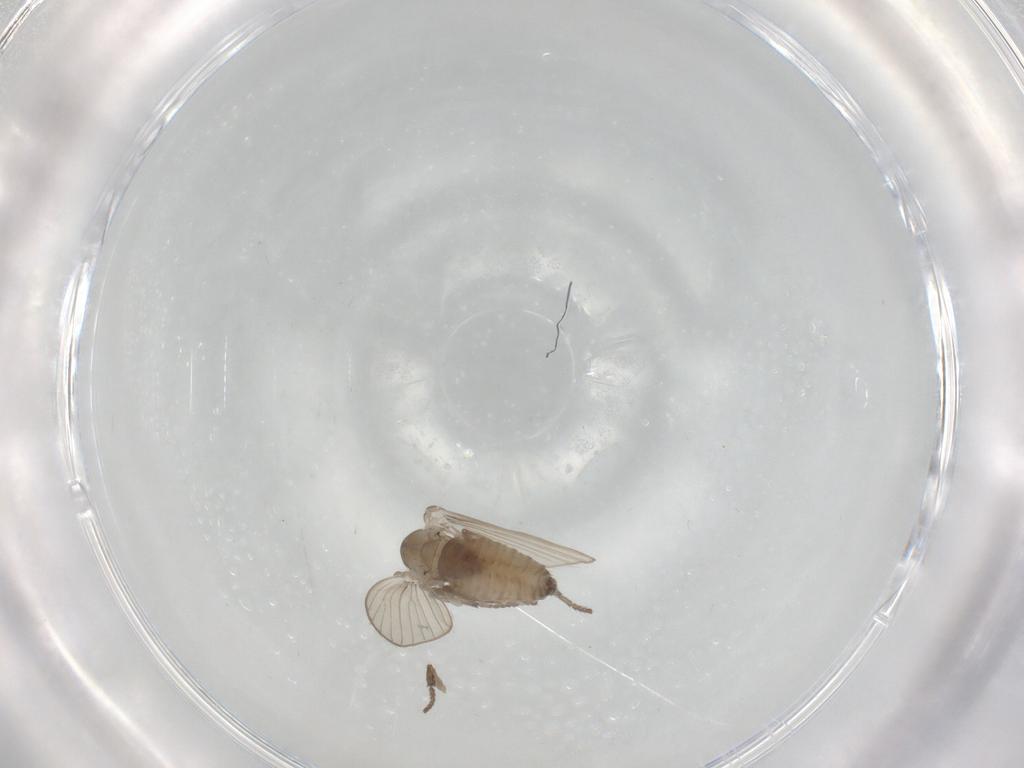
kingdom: Animalia
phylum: Arthropoda
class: Insecta
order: Diptera
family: Psychodidae
